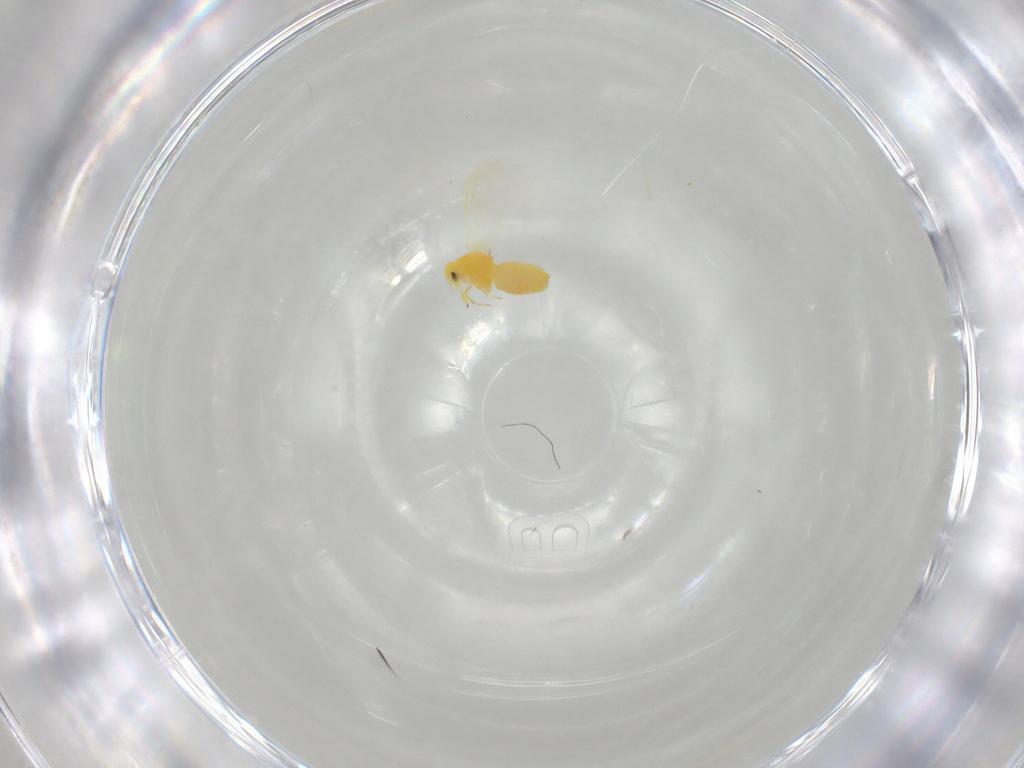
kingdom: Animalia
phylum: Arthropoda
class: Insecta
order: Hemiptera
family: Aleyrodidae
